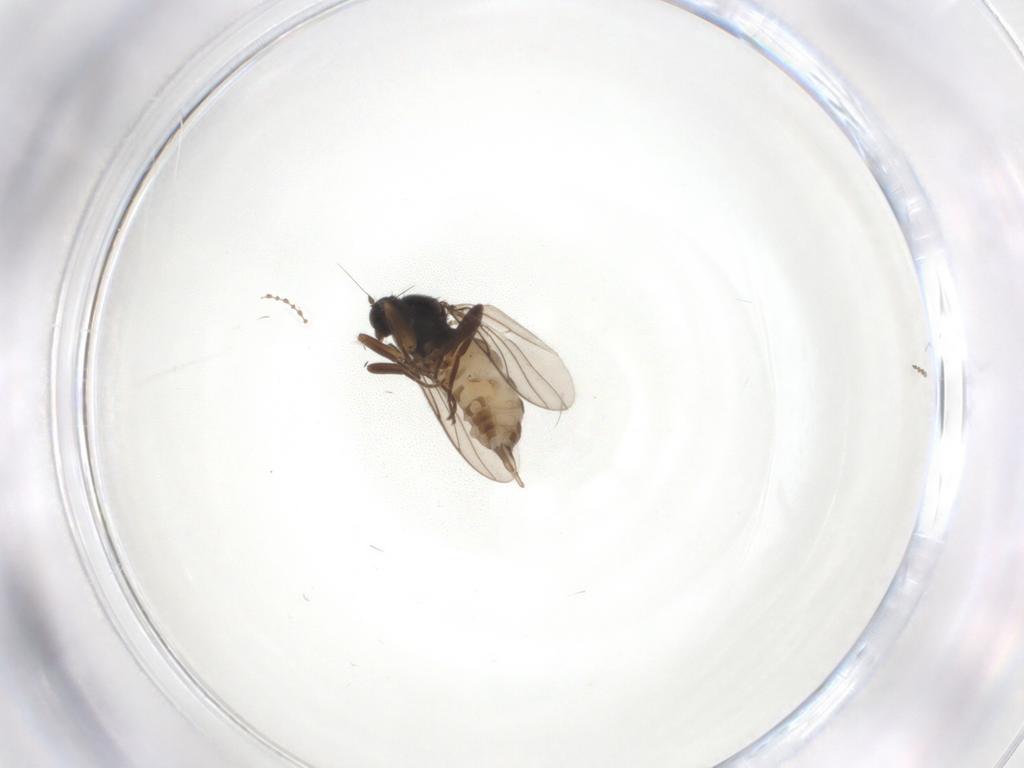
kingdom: Animalia
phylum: Arthropoda
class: Insecta
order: Diptera
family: Hybotidae
